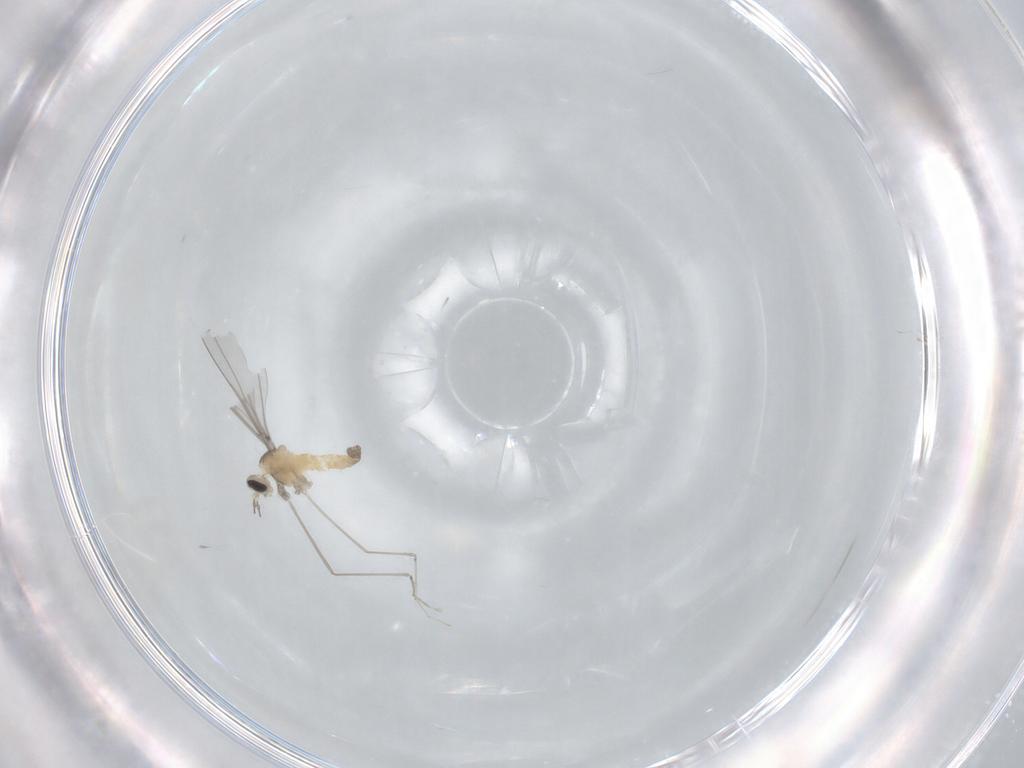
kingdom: Animalia
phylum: Arthropoda
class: Insecta
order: Diptera
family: Cecidomyiidae
